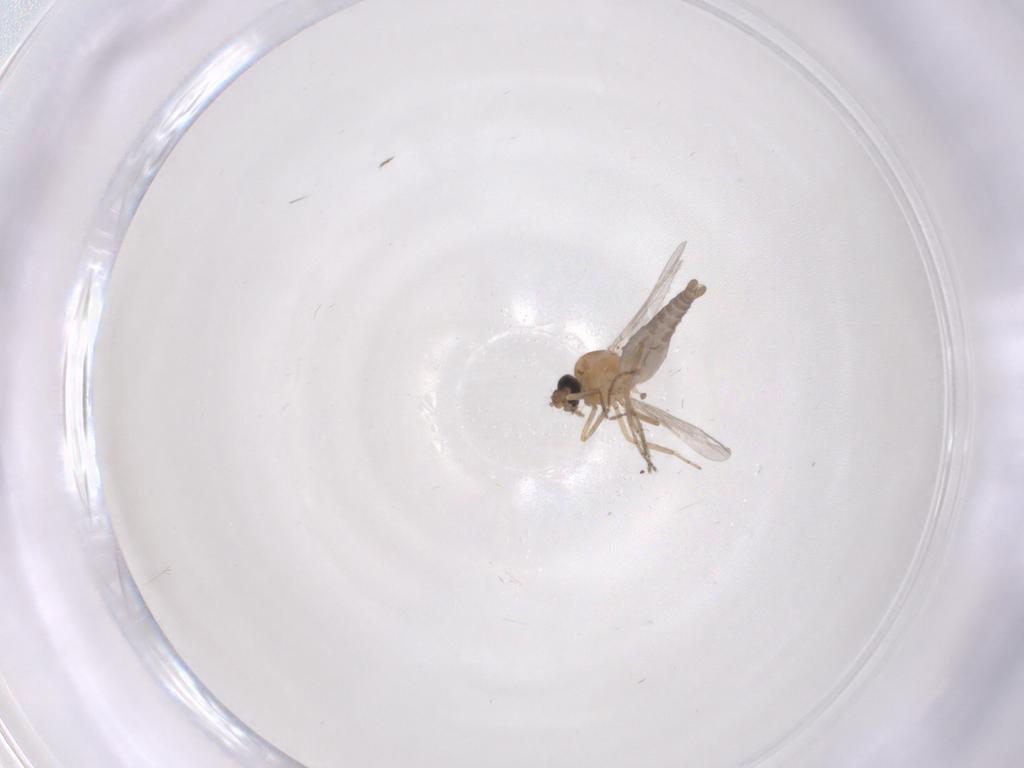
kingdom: Animalia
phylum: Arthropoda
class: Insecta
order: Diptera
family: Ceratopogonidae
